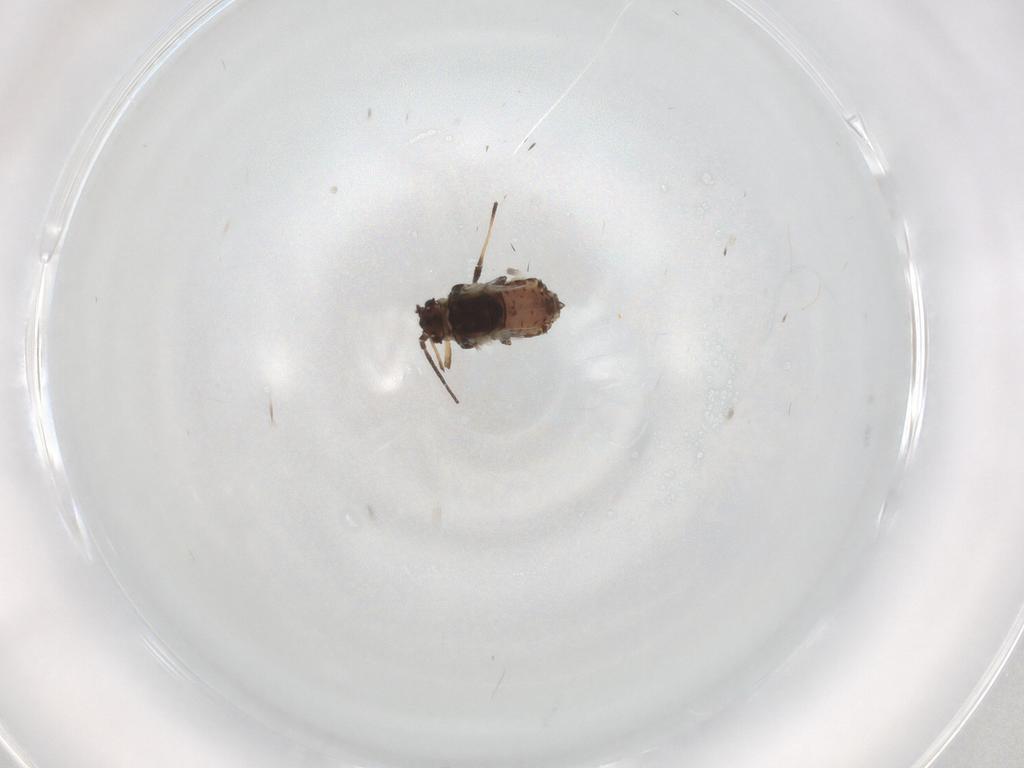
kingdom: Animalia
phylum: Arthropoda
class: Insecta
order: Hemiptera
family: Aphididae
